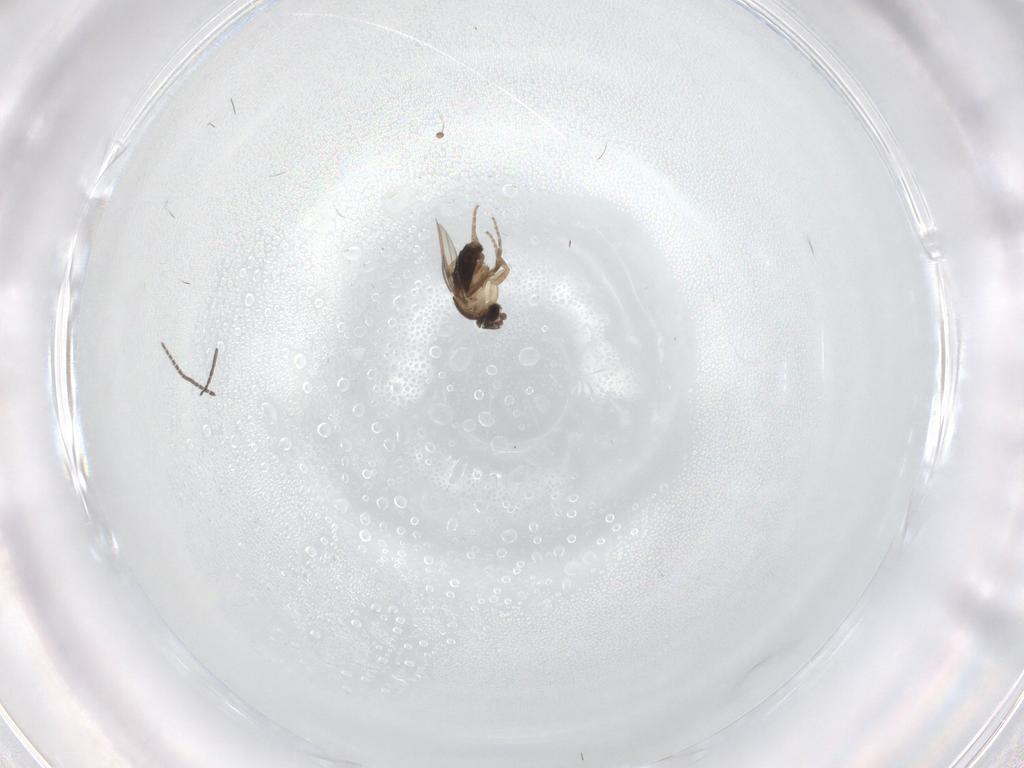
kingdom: Animalia
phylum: Arthropoda
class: Insecta
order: Diptera
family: Phoridae
